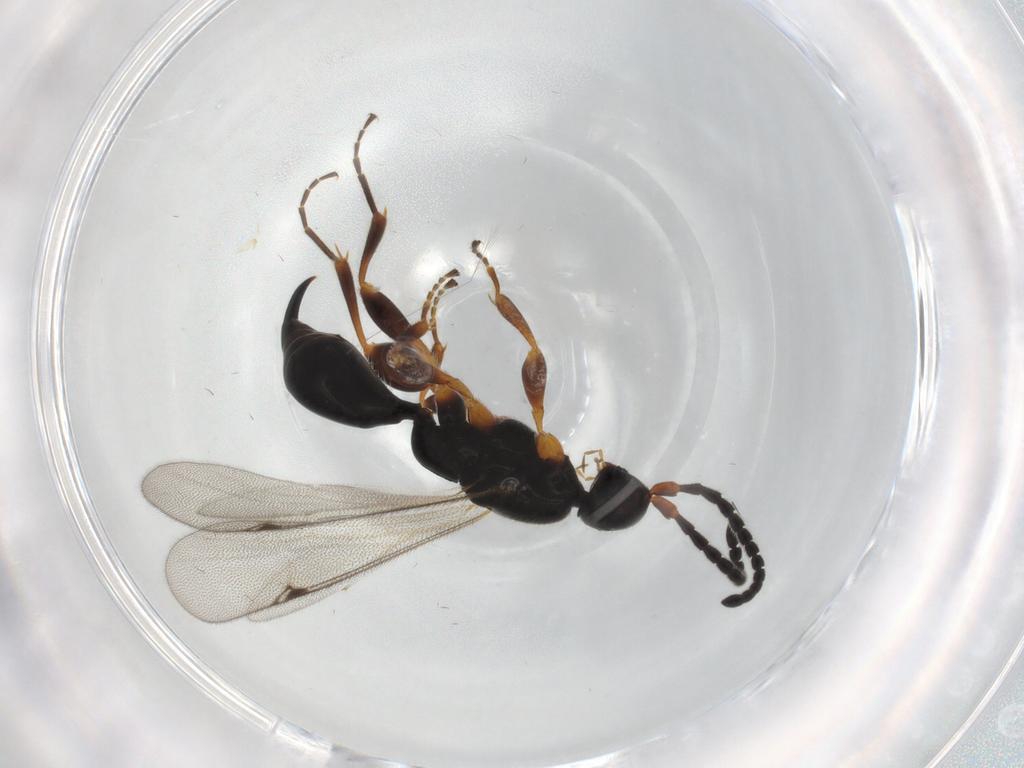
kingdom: Animalia
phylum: Arthropoda
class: Insecta
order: Hymenoptera
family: Proctotrupidae
